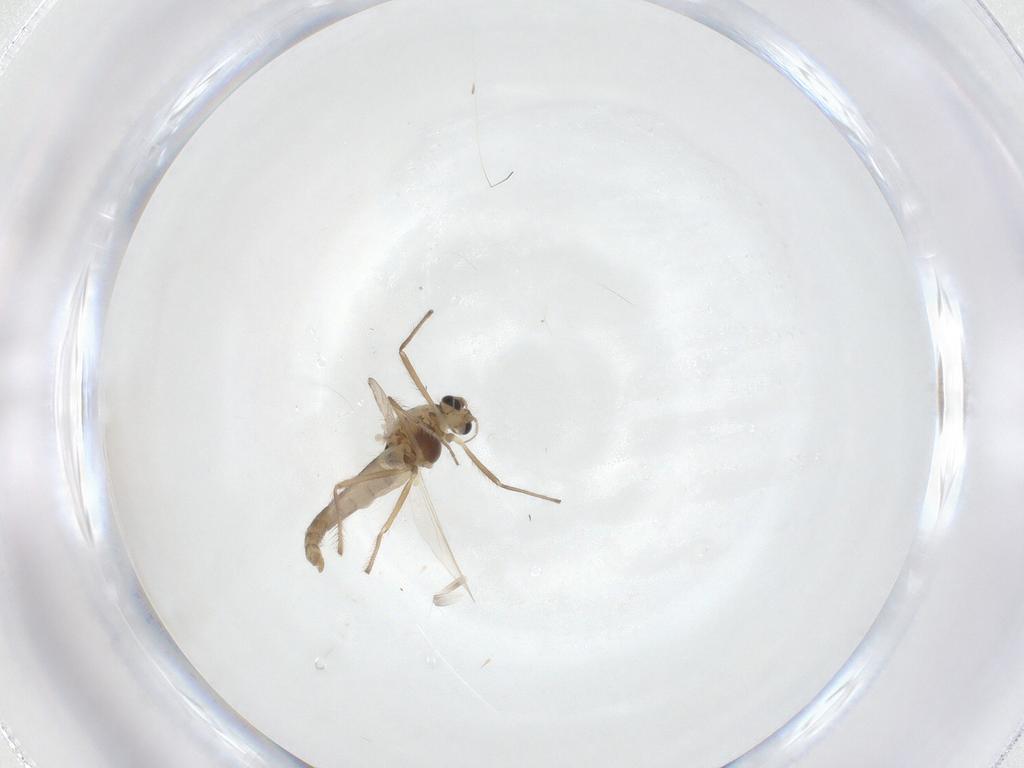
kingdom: Animalia
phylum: Arthropoda
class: Insecta
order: Diptera
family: Chironomidae
